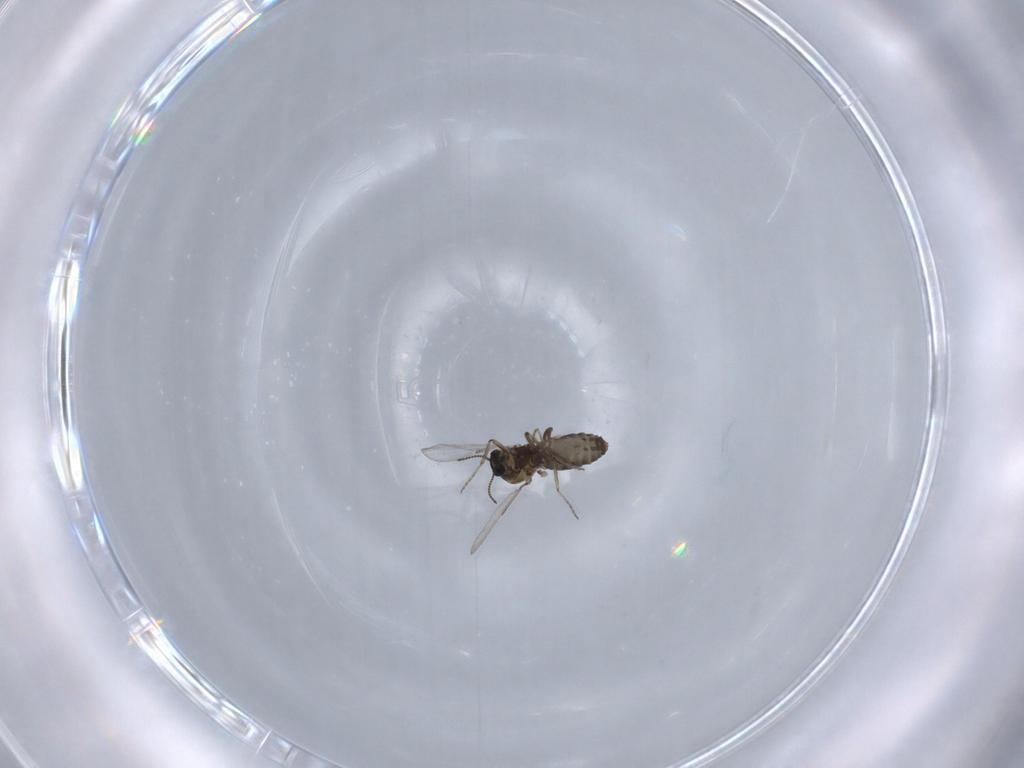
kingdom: Animalia
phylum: Arthropoda
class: Insecta
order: Diptera
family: Ceratopogonidae
